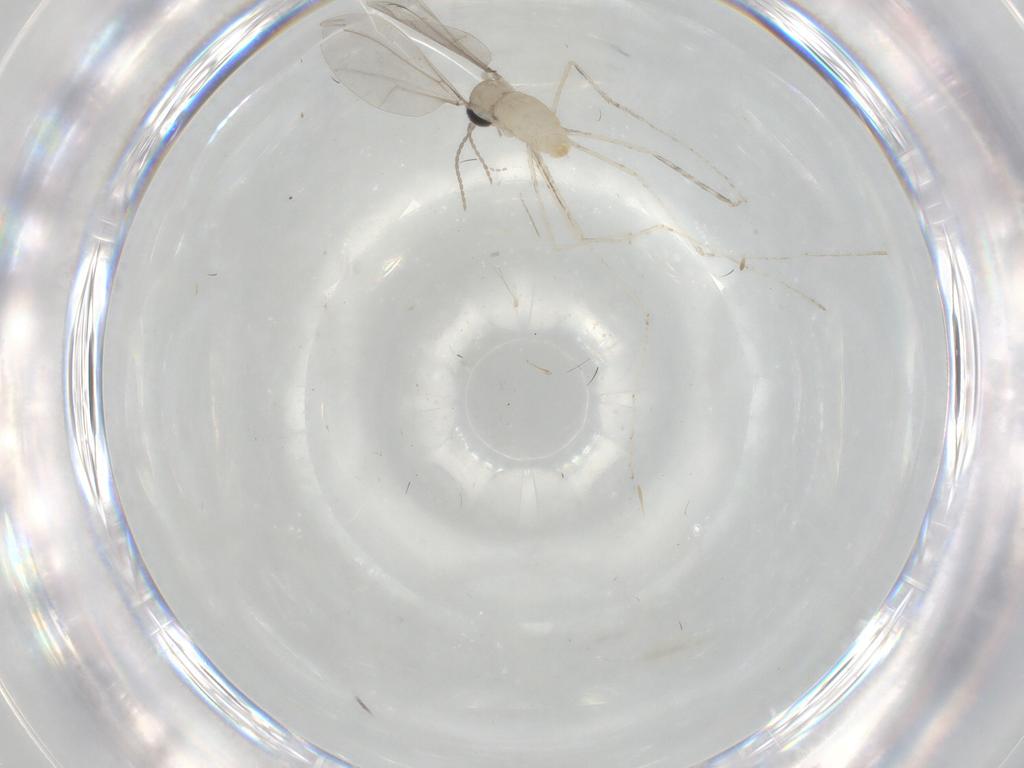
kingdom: Animalia
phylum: Arthropoda
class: Insecta
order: Diptera
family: Cecidomyiidae
